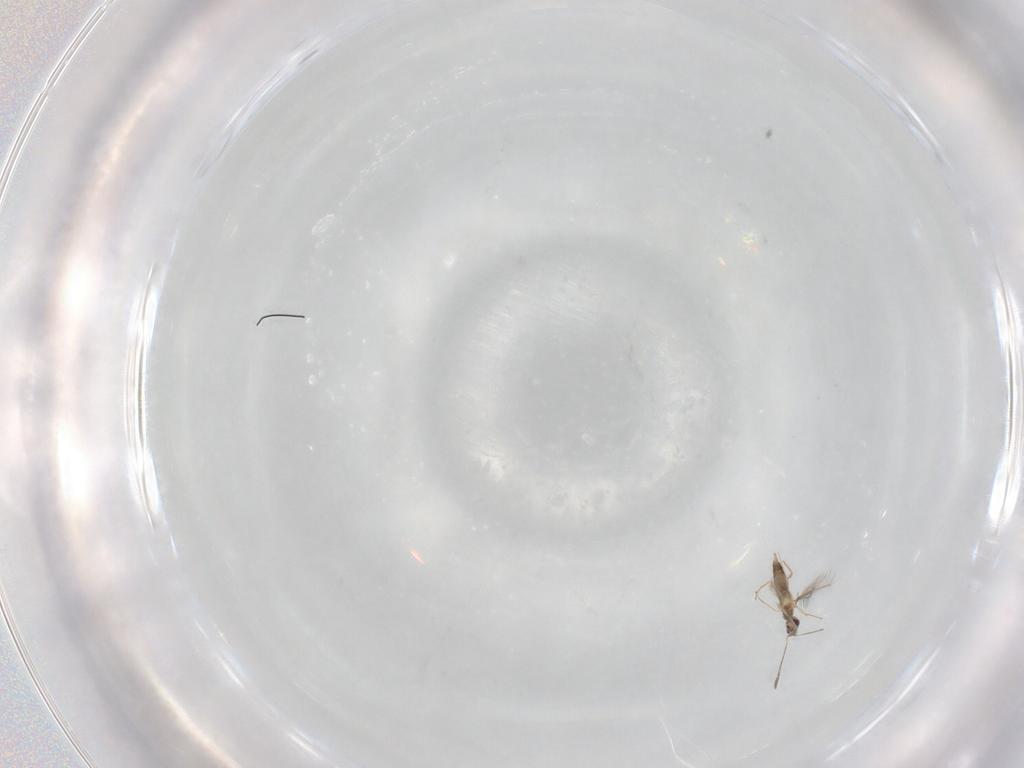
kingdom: Animalia
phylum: Arthropoda
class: Insecta
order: Hymenoptera
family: Mymaridae
